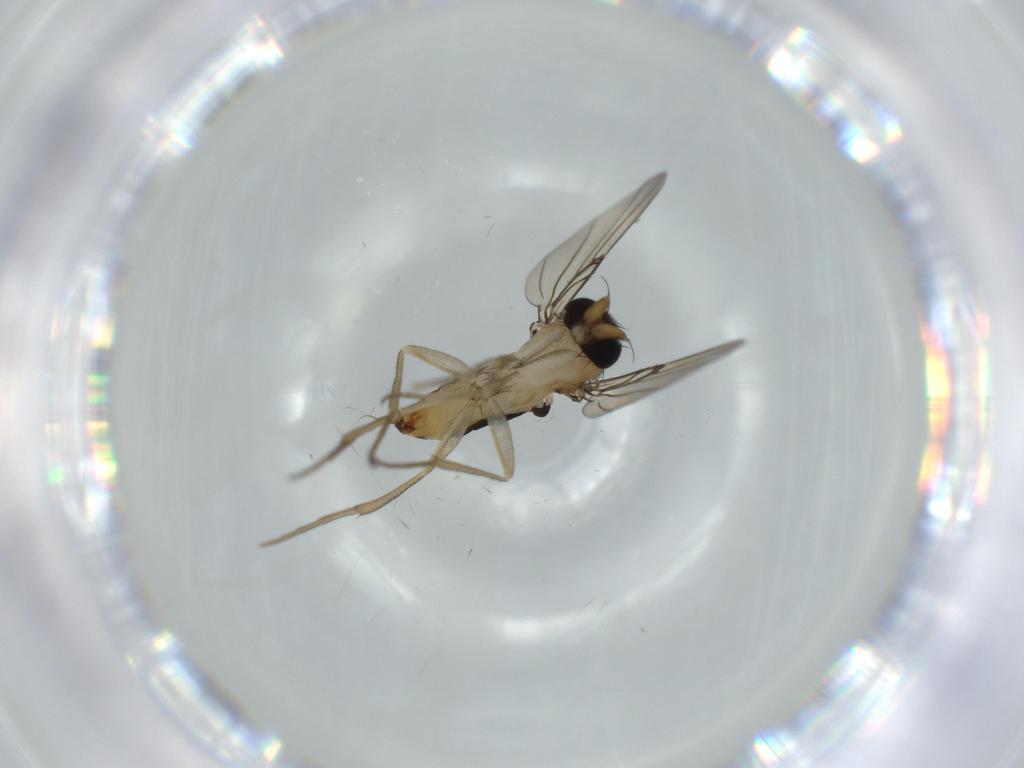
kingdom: Animalia
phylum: Arthropoda
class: Insecta
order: Diptera
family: Phoridae
